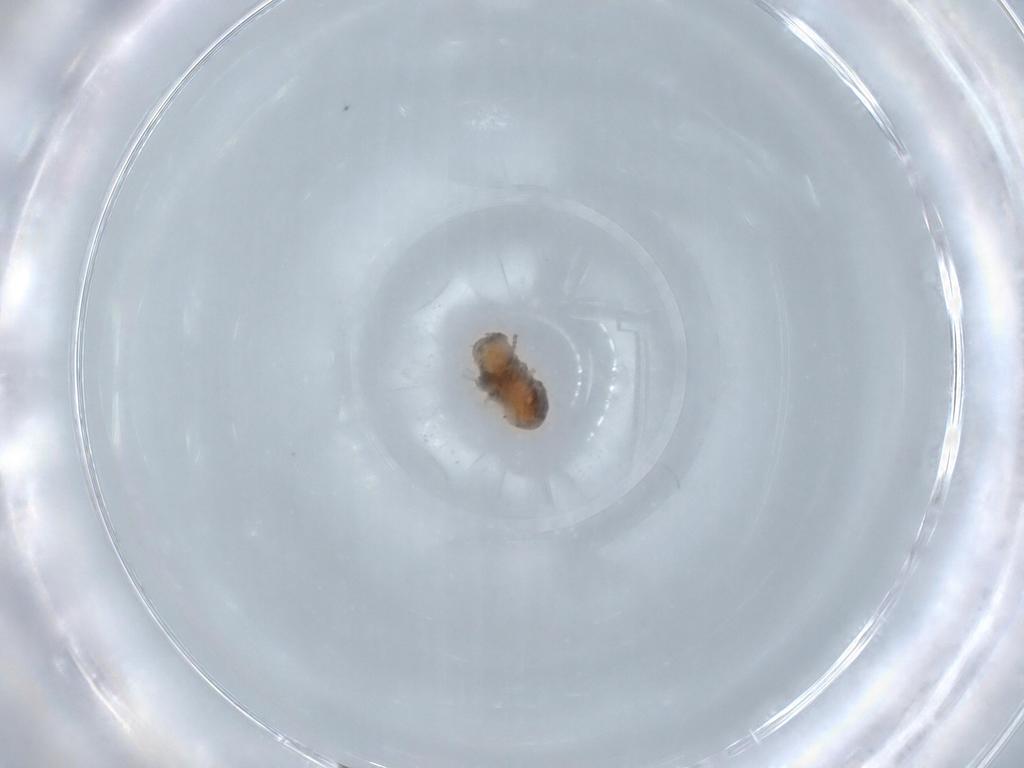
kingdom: Animalia
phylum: Arthropoda
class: Insecta
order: Diptera
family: Psychodidae
